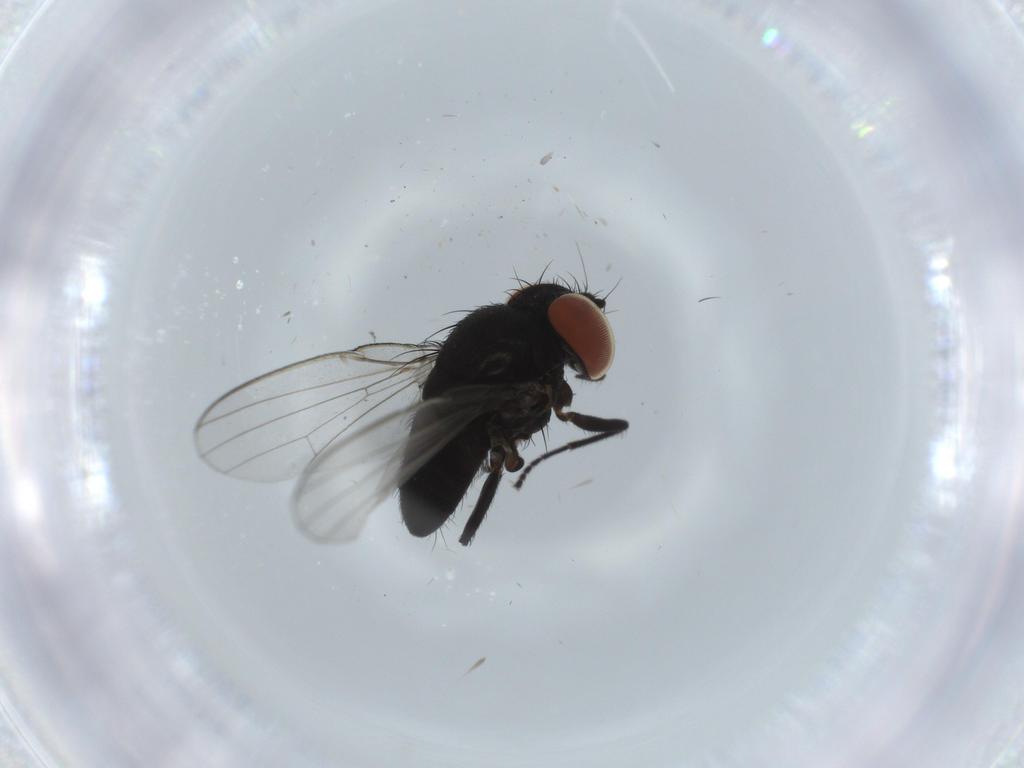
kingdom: Animalia
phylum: Arthropoda
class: Insecta
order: Diptera
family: Milichiidae
